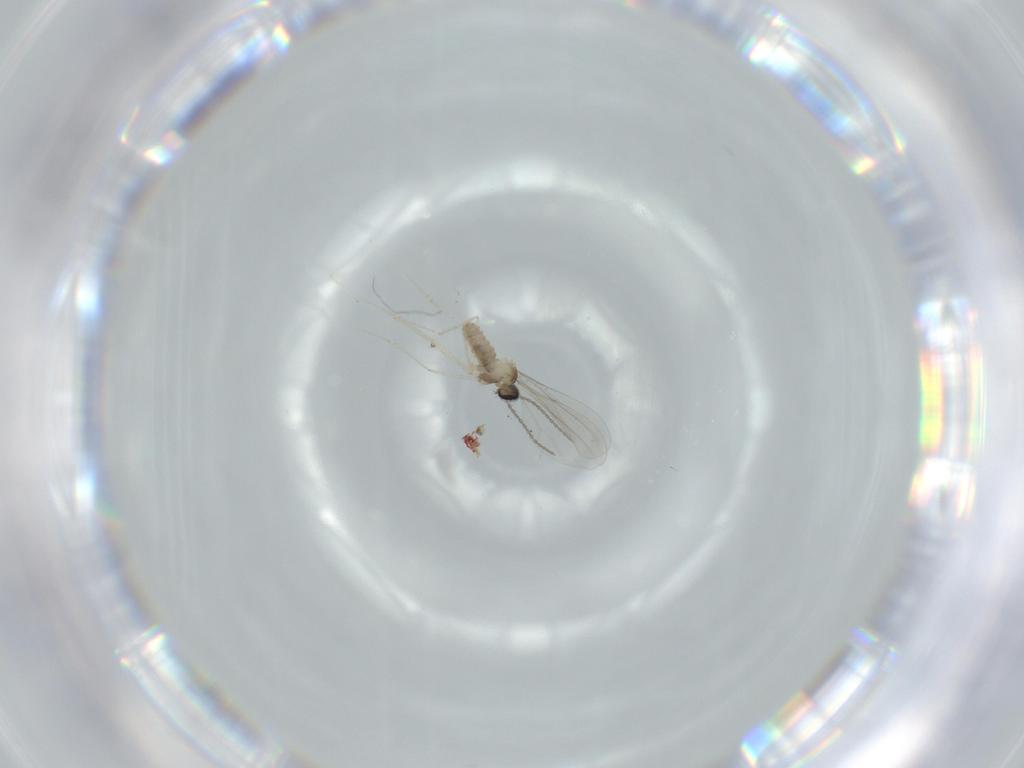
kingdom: Animalia
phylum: Arthropoda
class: Insecta
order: Diptera
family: Cecidomyiidae
